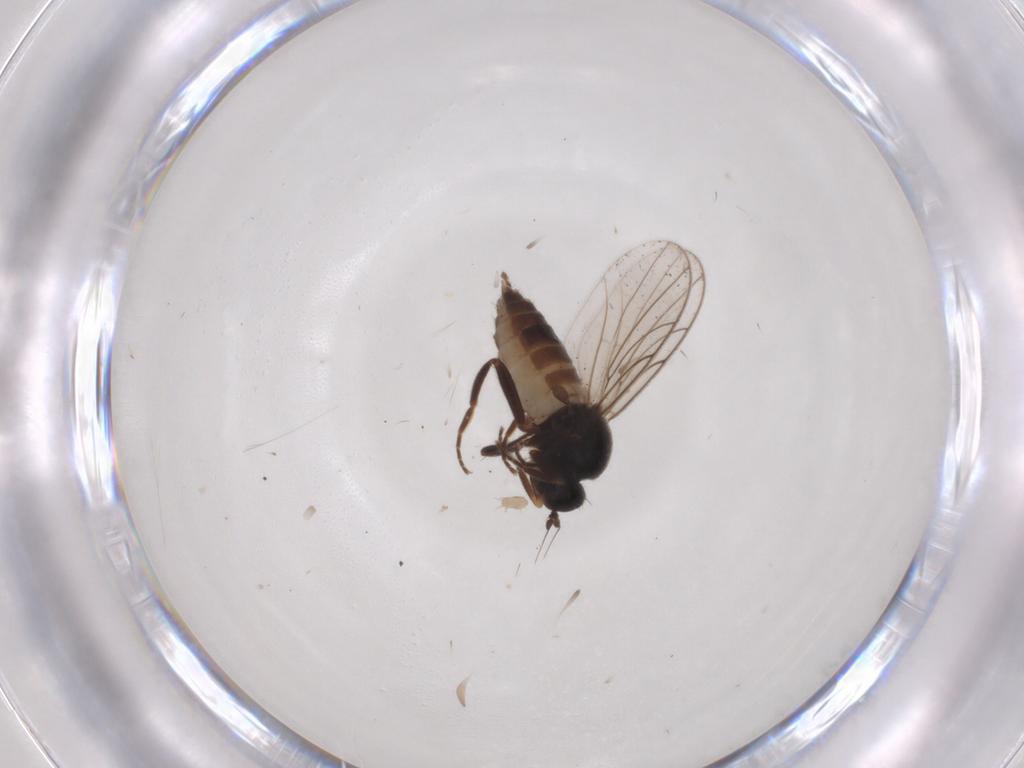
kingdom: Animalia
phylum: Arthropoda
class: Insecta
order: Diptera
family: Hybotidae
